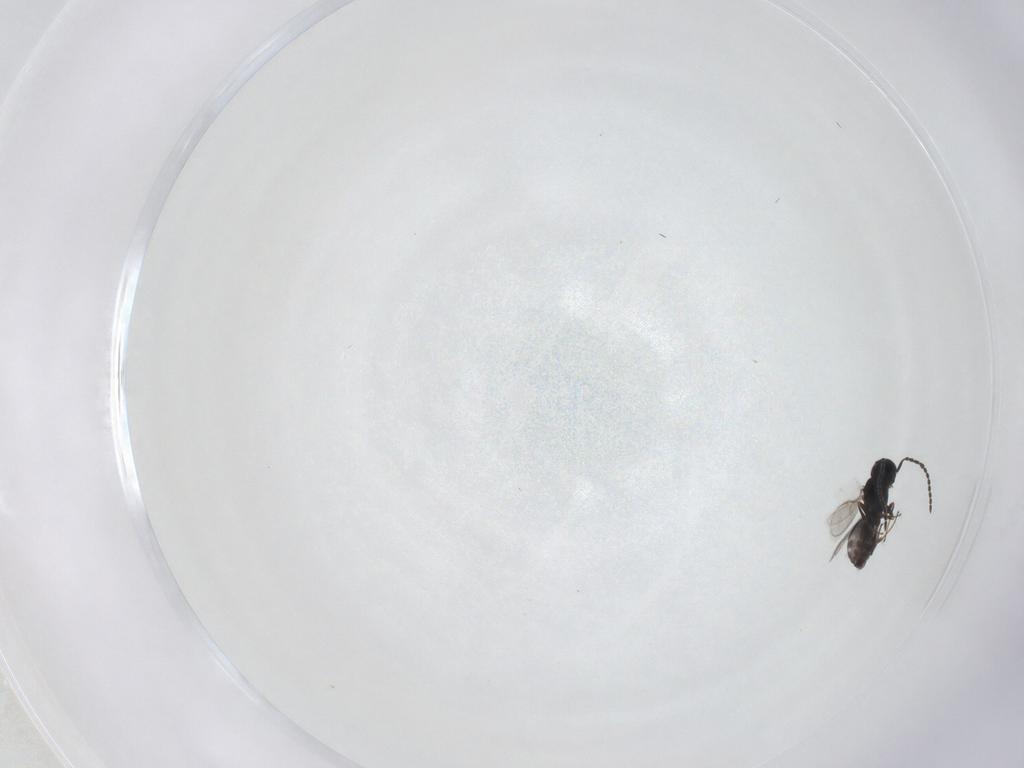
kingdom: Animalia
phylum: Arthropoda
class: Insecta
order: Hymenoptera
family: Scelionidae
